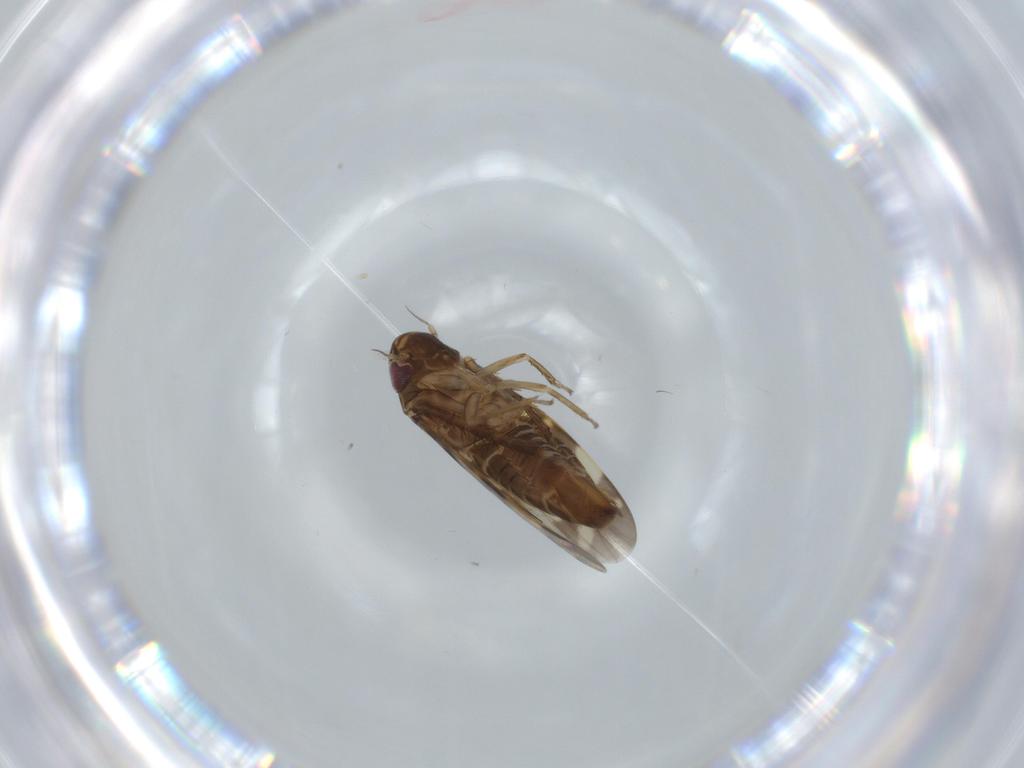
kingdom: Animalia
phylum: Arthropoda
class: Insecta
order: Hemiptera
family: Cicadellidae
